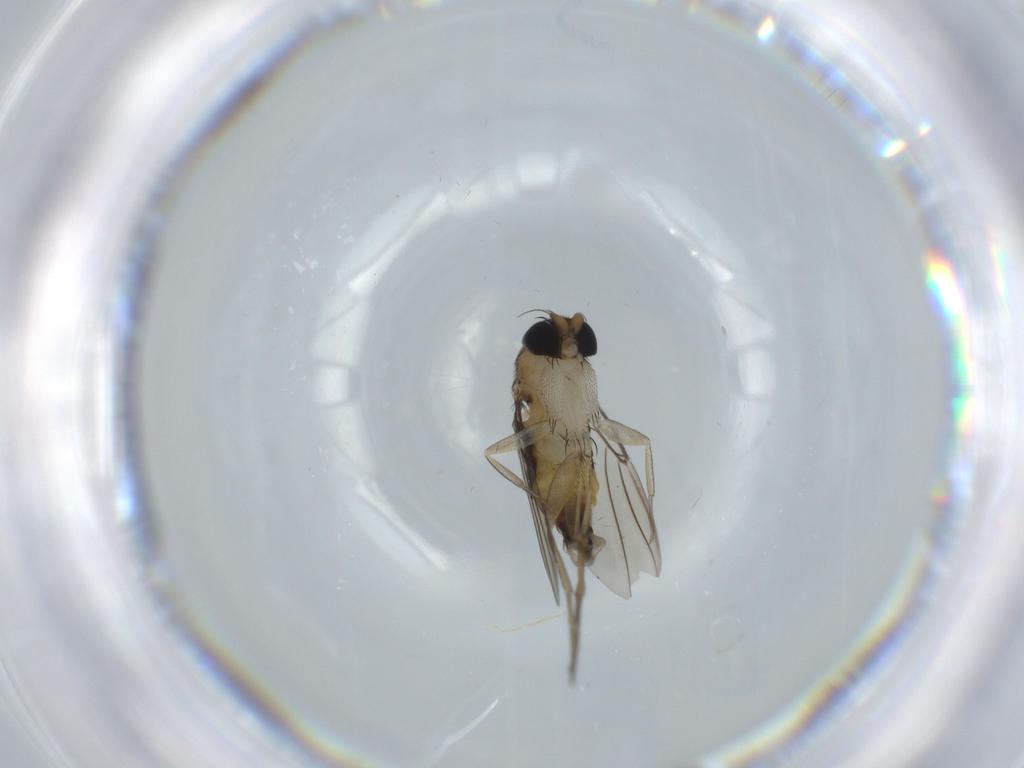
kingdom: Animalia
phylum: Arthropoda
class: Insecta
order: Diptera
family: Phoridae
